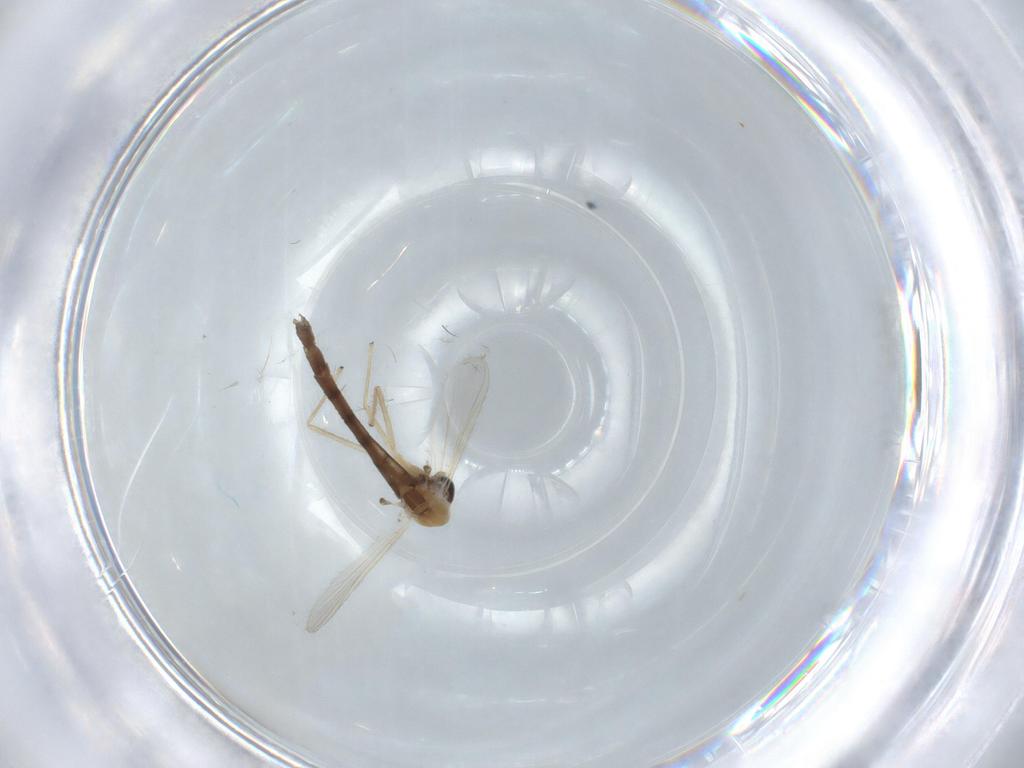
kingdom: Animalia
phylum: Arthropoda
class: Insecta
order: Diptera
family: Chironomidae
